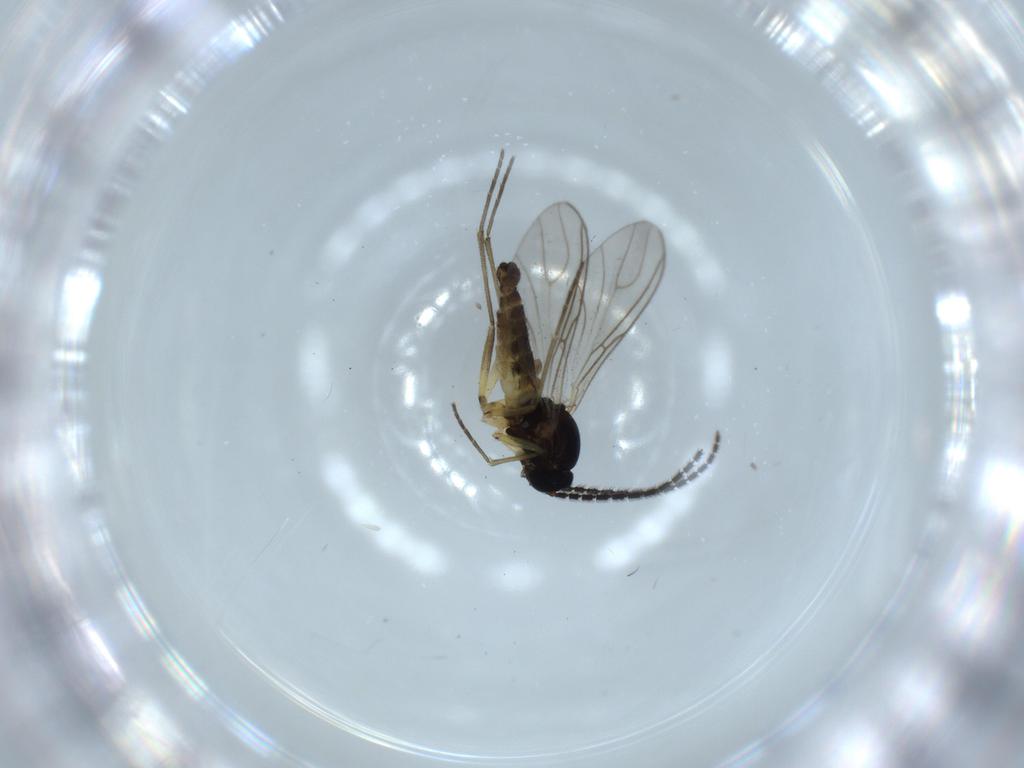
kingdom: Animalia
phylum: Arthropoda
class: Insecta
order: Diptera
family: Sciaridae
